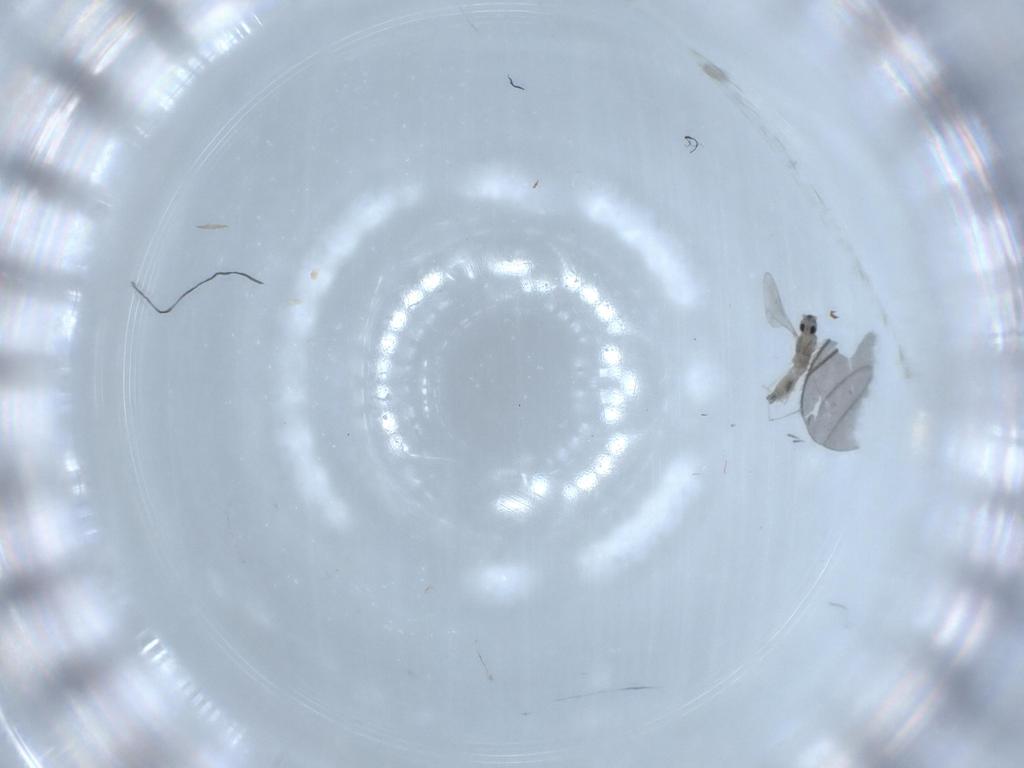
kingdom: Animalia
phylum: Arthropoda
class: Insecta
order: Diptera
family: Cecidomyiidae
